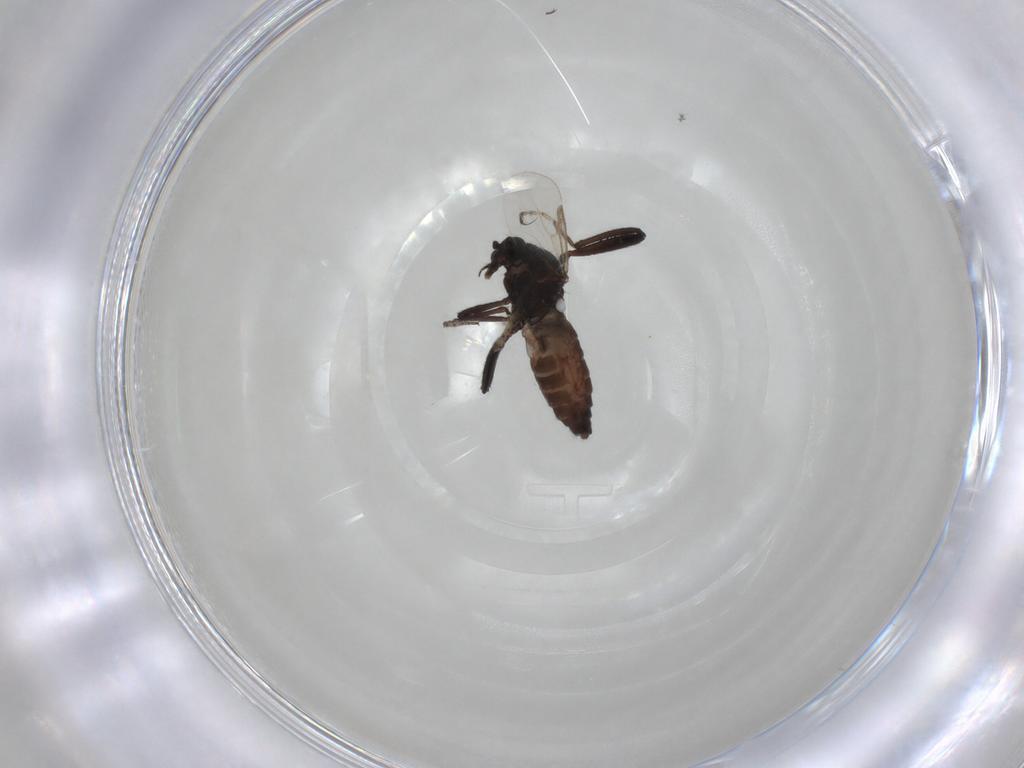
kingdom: Animalia
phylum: Arthropoda
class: Insecta
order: Diptera
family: Ceratopogonidae
